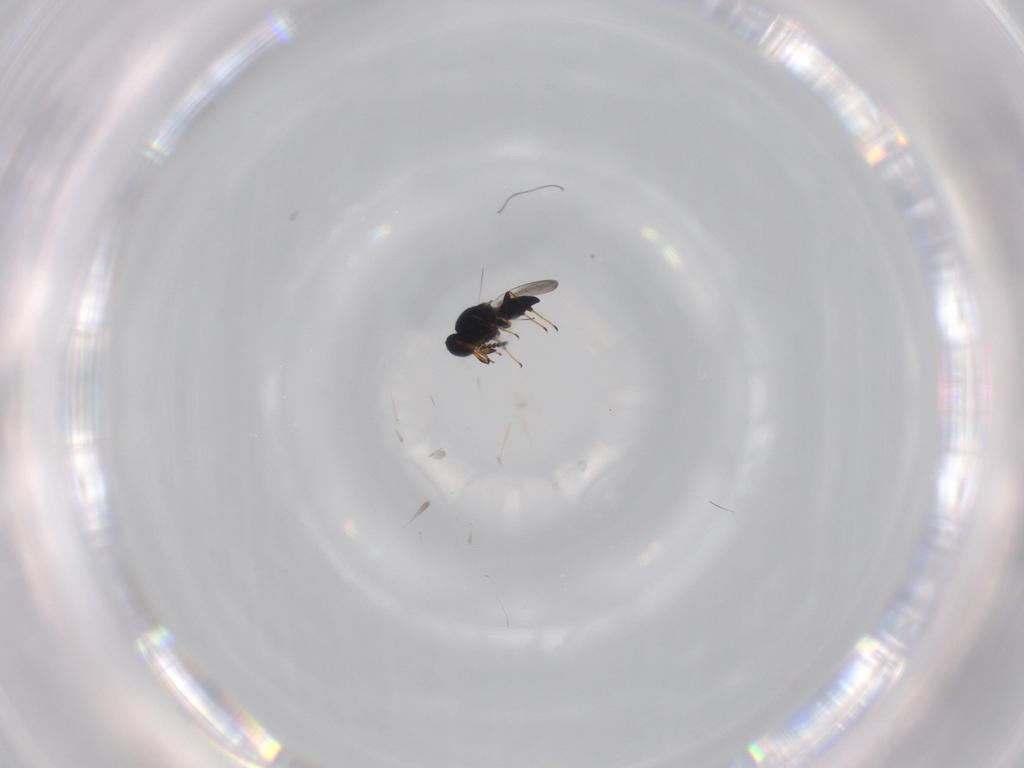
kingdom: Animalia
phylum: Arthropoda
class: Insecta
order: Hymenoptera
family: Platygastridae
